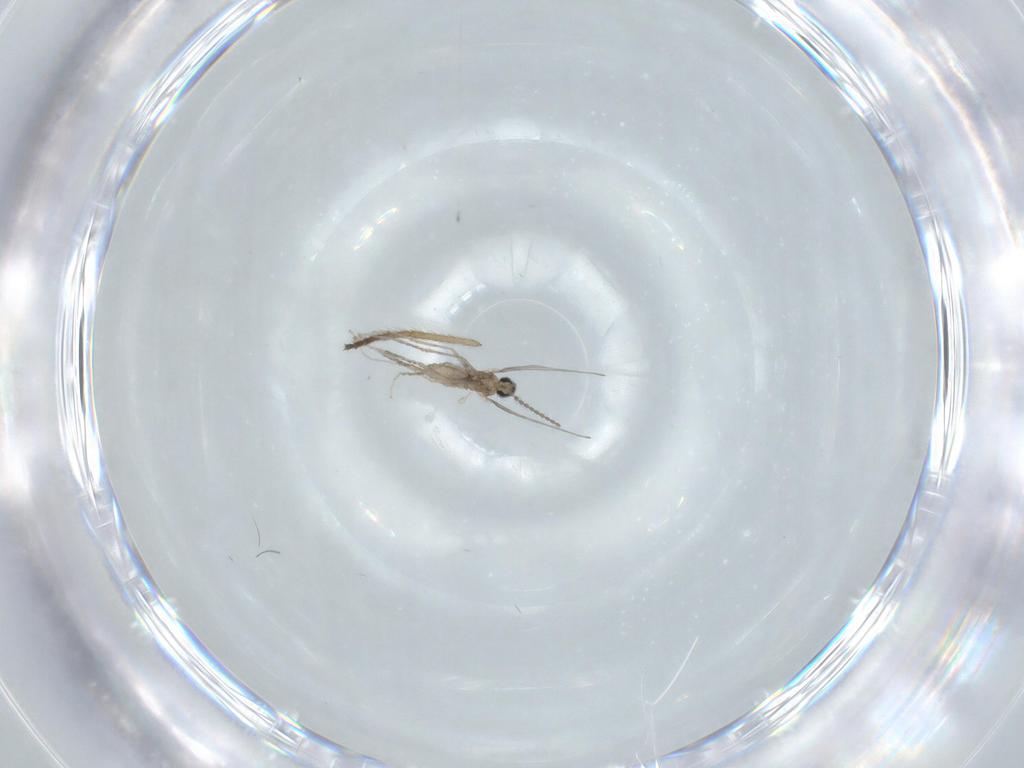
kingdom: Animalia
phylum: Arthropoda
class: Insecta
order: Diptera
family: Chironomidae
